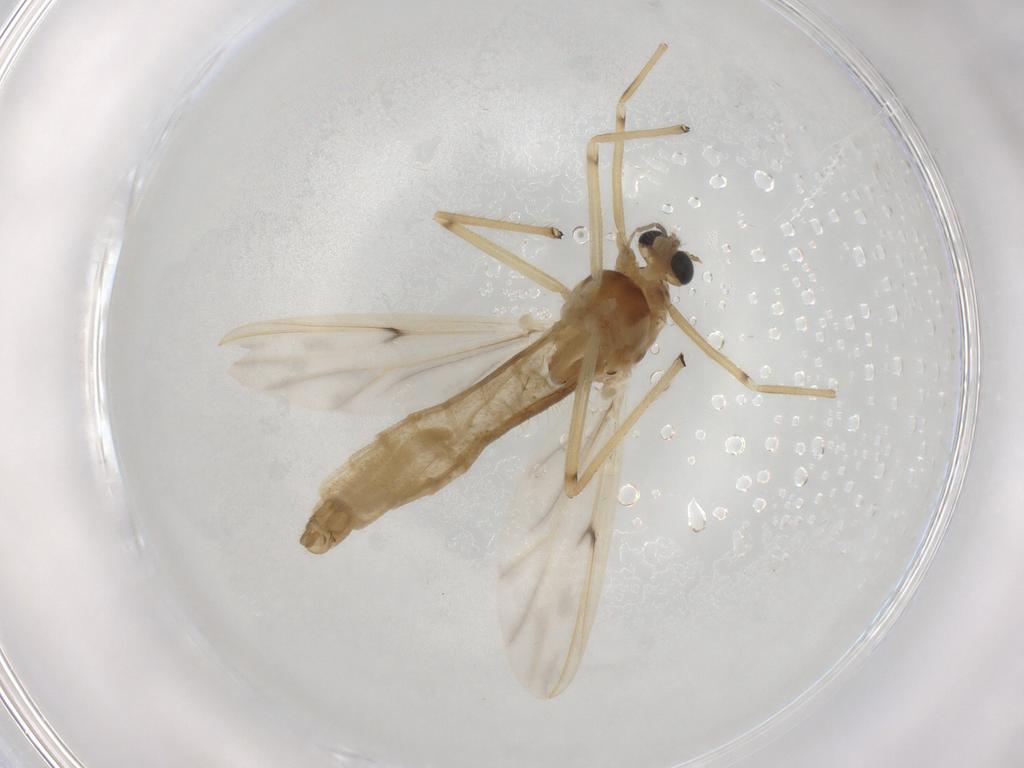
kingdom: Animalia
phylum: Arthropoda
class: Insecta
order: Diptera
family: Chironomidae
